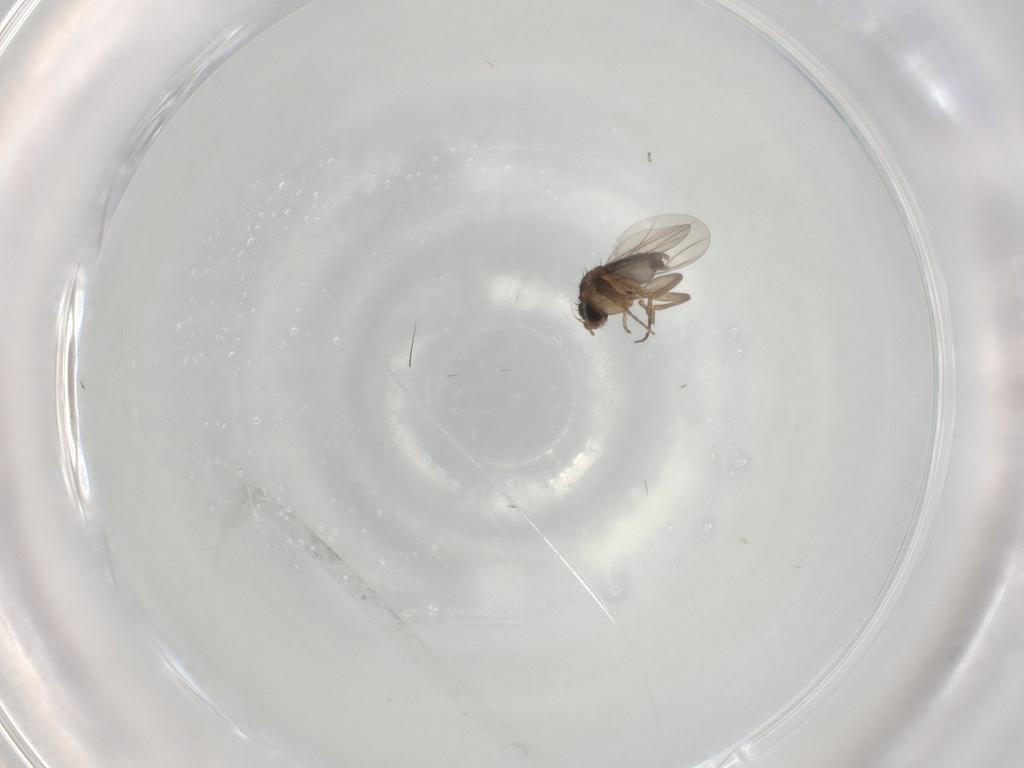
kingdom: Animalia
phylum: Arthropoda
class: Insecta
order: Diptera
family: Phoridae
